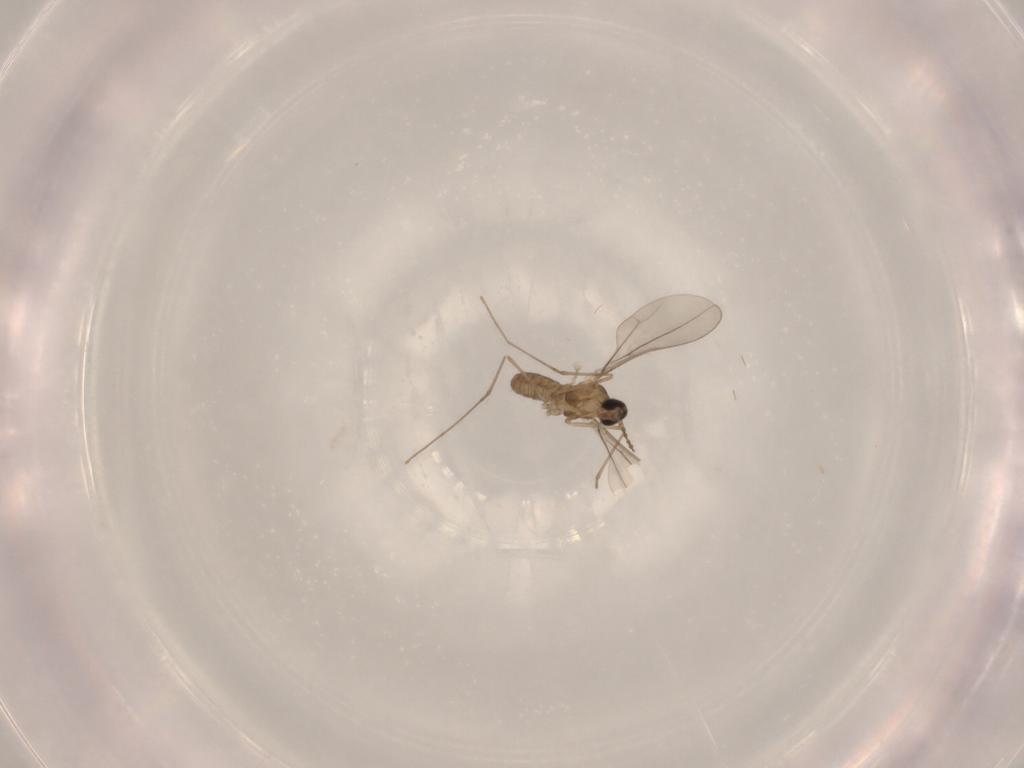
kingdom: Animalia
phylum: Arthropoda
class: Insecta
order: Diptera
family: Cecidomyiidae
